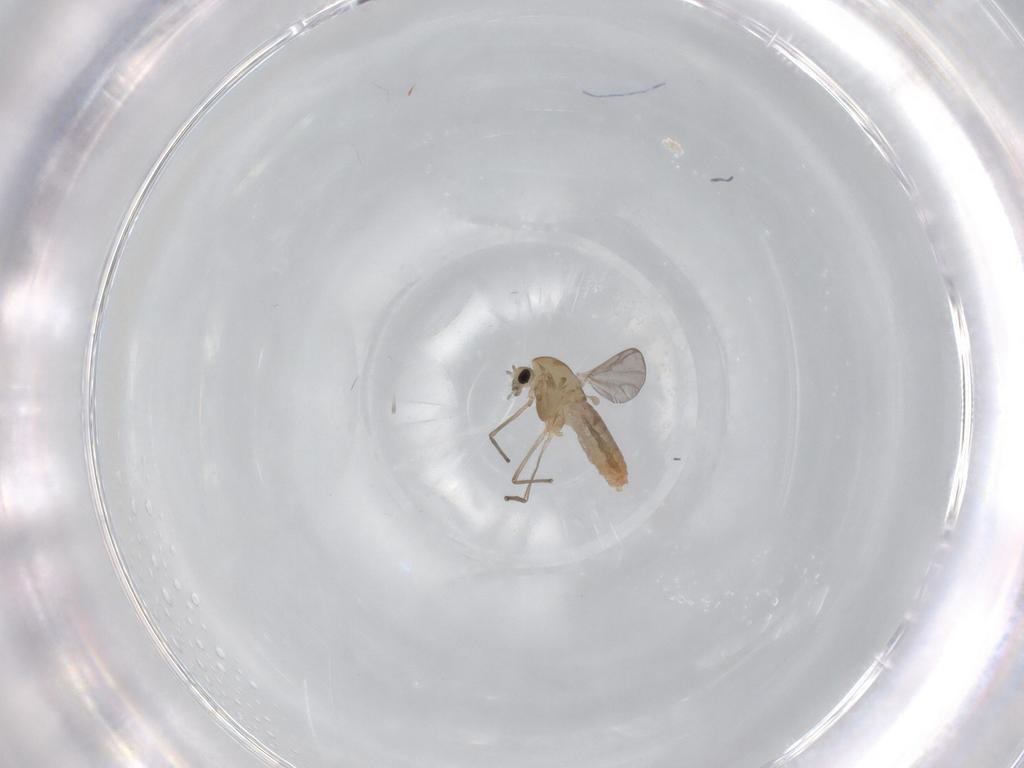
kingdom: Animalia
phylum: Arthropoda
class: Insecta
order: Diptera
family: Chironomidae
